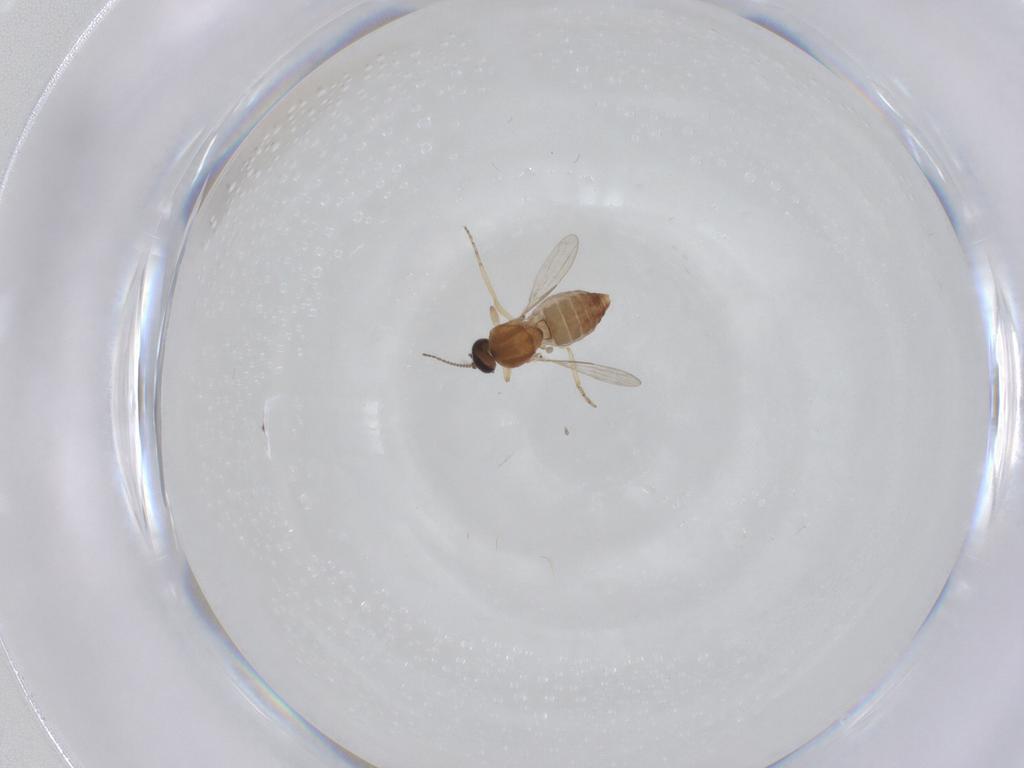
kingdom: Animalia
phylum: Arthropoda
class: Insecta
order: Diptera
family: Ceratopogonidae
